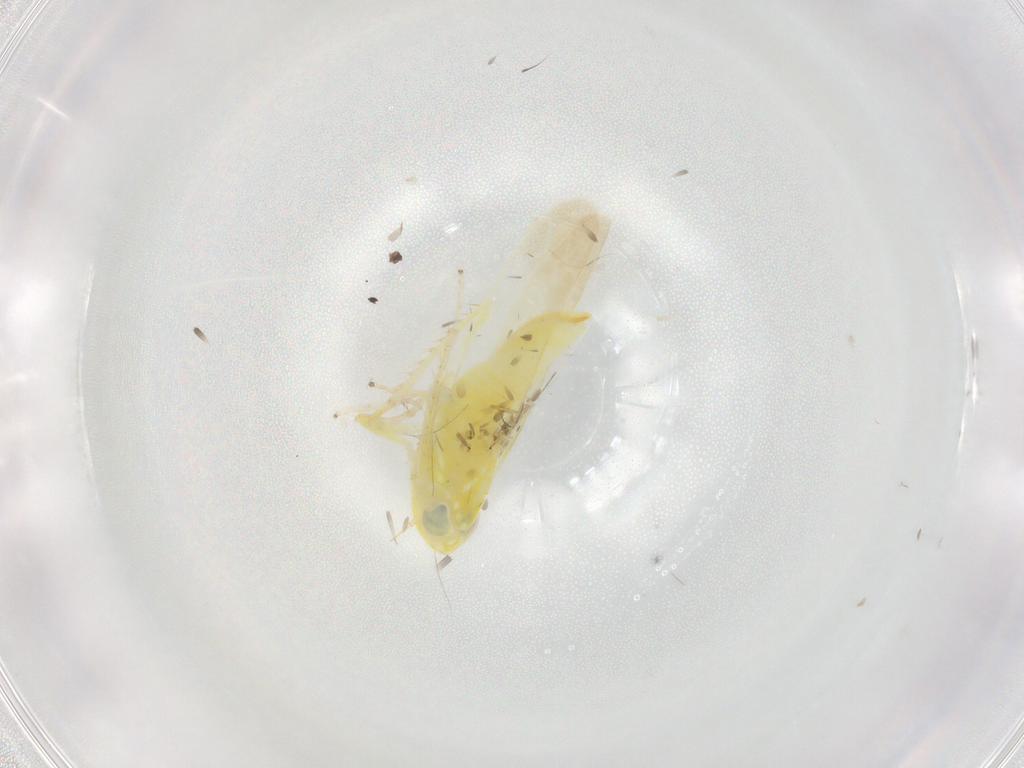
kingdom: Animalia
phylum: Arthropoda
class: Insecta
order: Hemiptera
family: Cicadellidae
